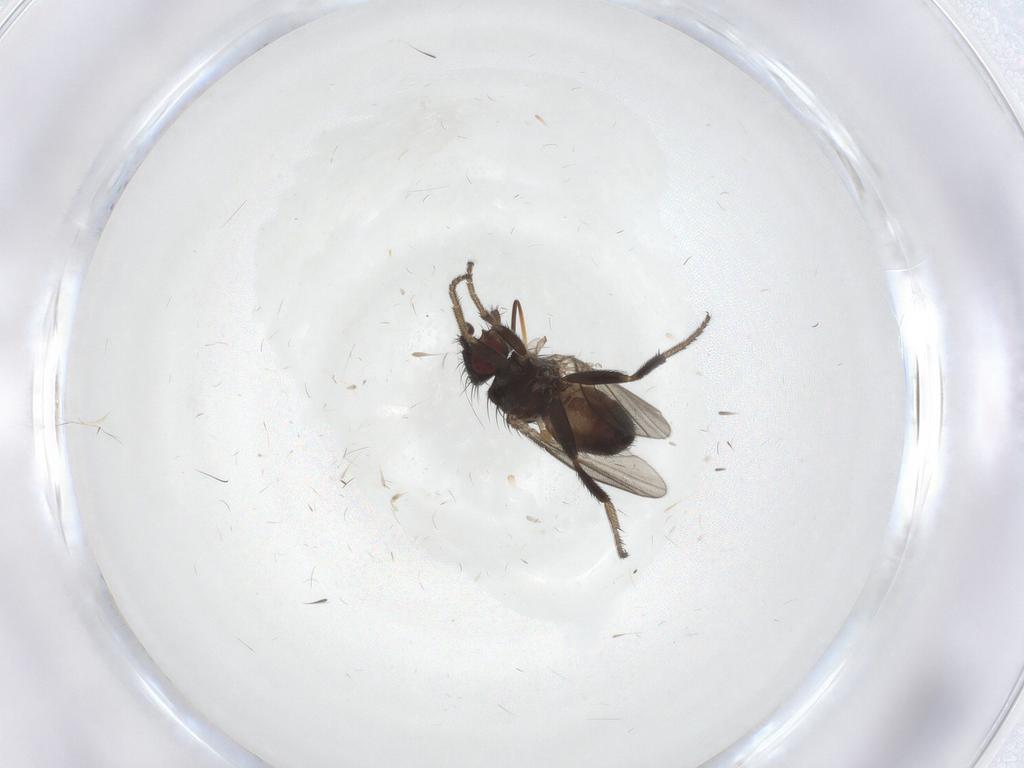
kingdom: Animalia
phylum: Arthropoda
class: Insecta
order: Diptera
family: Milichiidae
